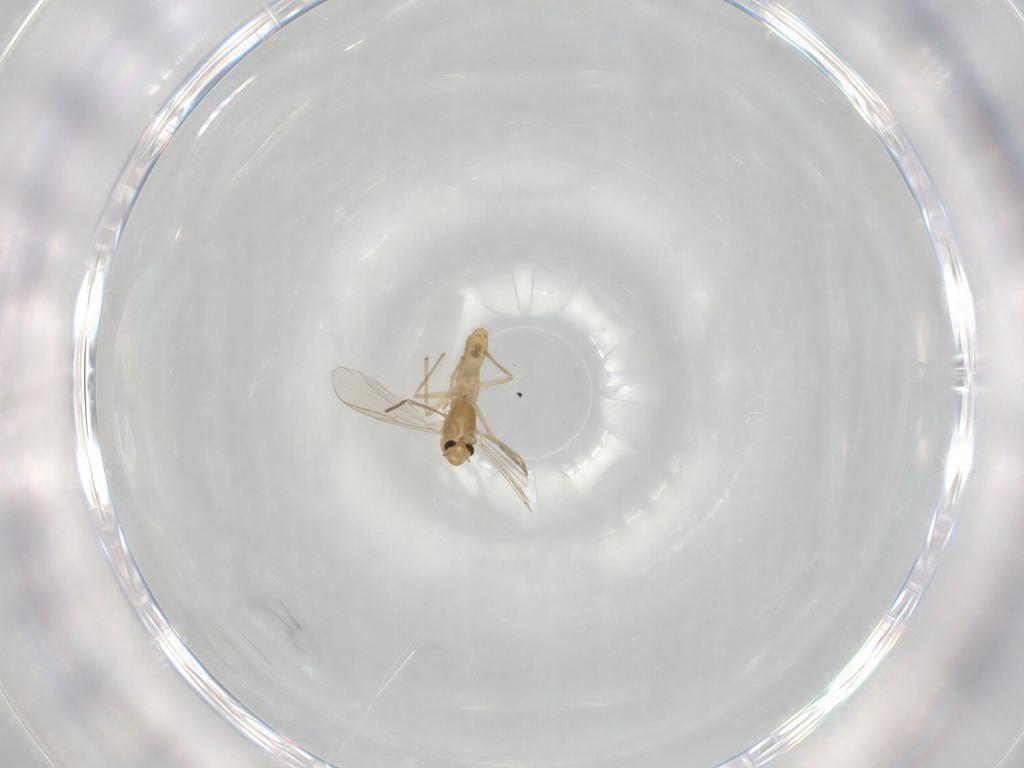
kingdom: Animalia
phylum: Arthropoda
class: Insecta
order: Diptera
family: Chironomidae
